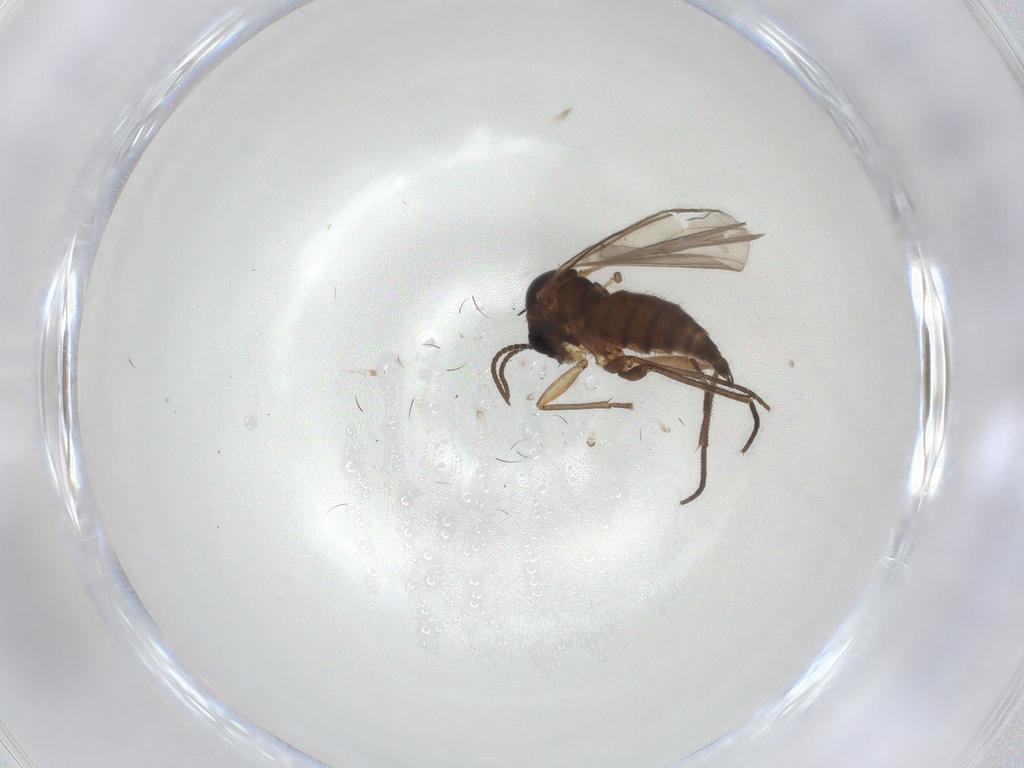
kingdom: Animalia
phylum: Arthropoda
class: Insecta
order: Diptera
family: Sciaridae
